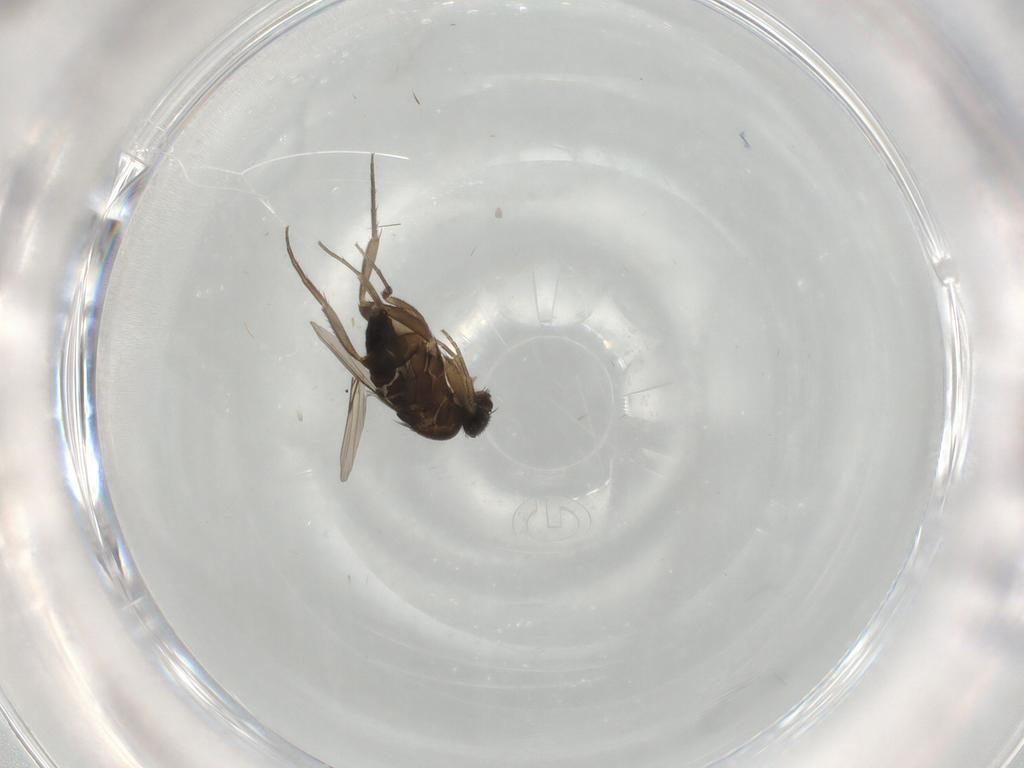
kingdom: Animalia
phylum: Arthropoda
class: Insecta
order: Diptera
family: Phoridae
